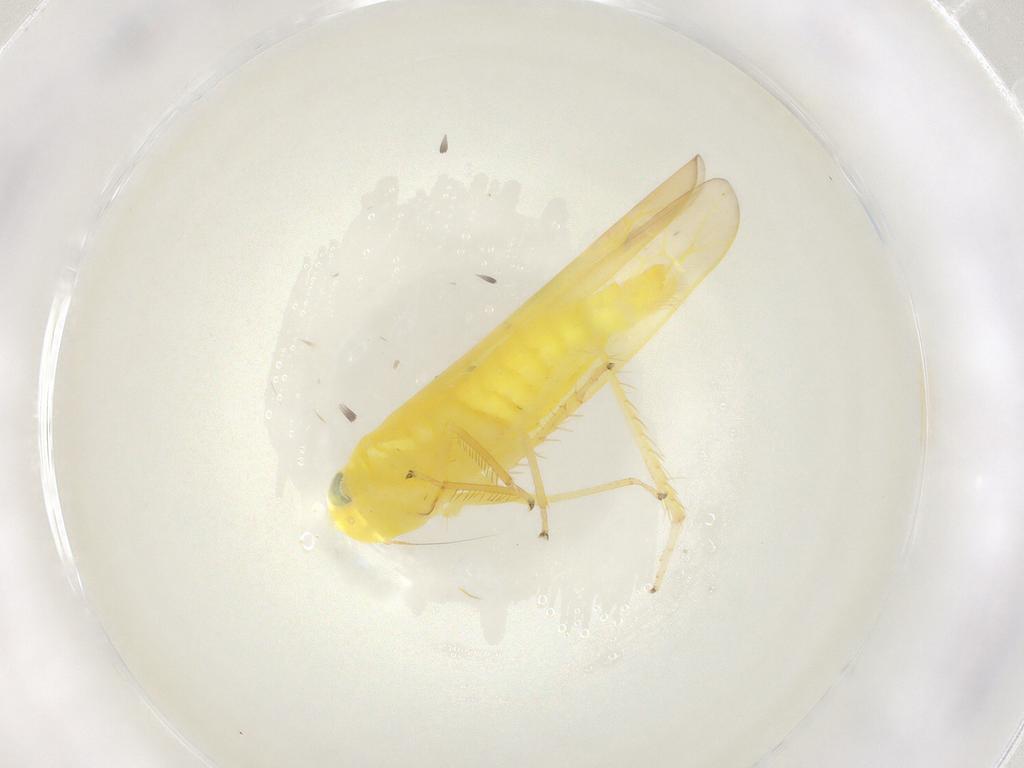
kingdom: Animalia
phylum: Arthropoda
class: Insecta
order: Hemiptera
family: Cicadellidae
